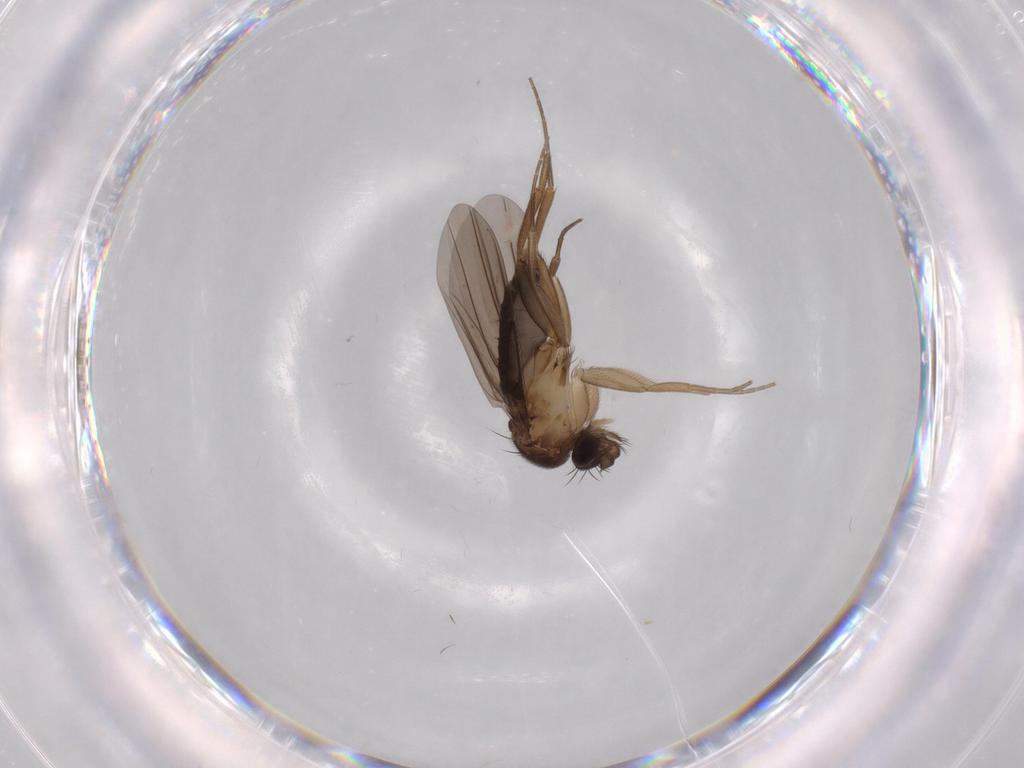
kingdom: Animalia
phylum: Arthropoda
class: Insecta
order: Diptera
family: Phoridae
